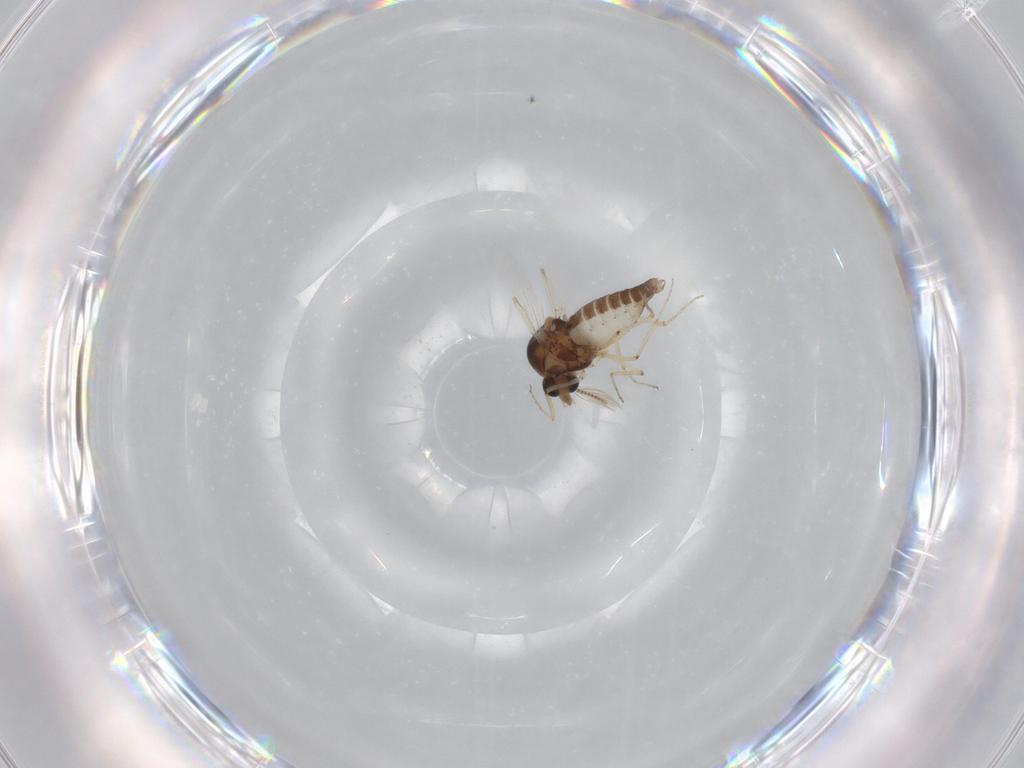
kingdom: Animalia
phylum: Arthropoda
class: Insecta
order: Diptera
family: Ceratopogonidae
